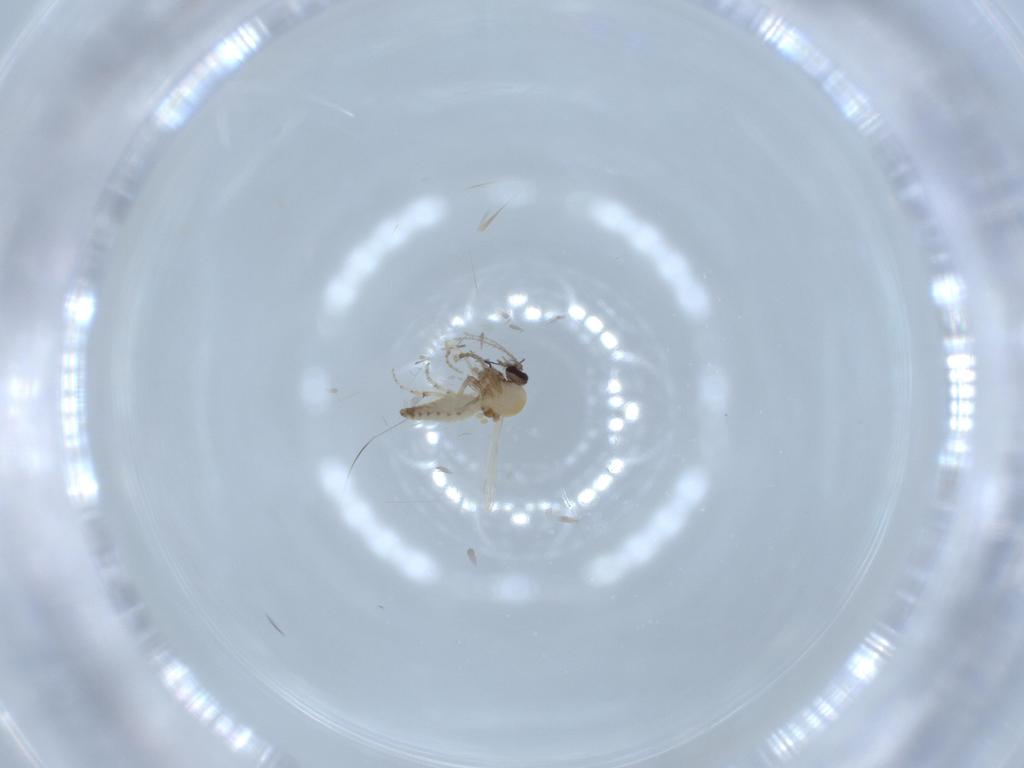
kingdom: Animalia
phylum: Arthropoda
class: Insecta
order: Diptera
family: Ceratopogonidae
